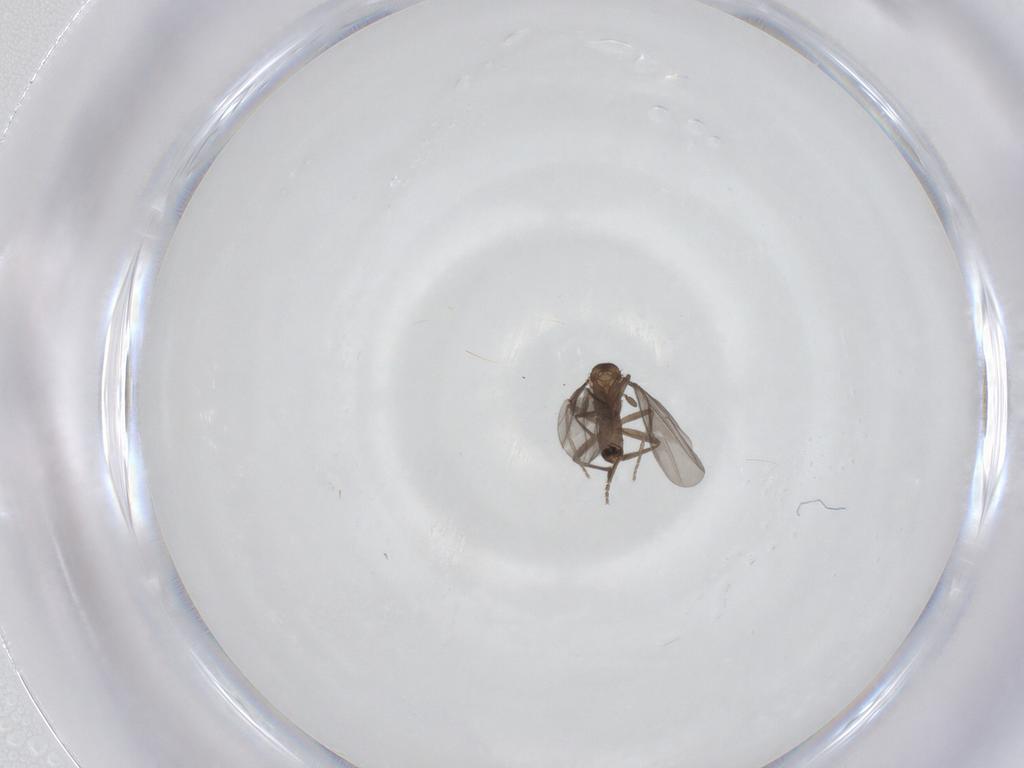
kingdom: Animalia
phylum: Arthropoda
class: Insecta
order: Diptera
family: Phoridae
